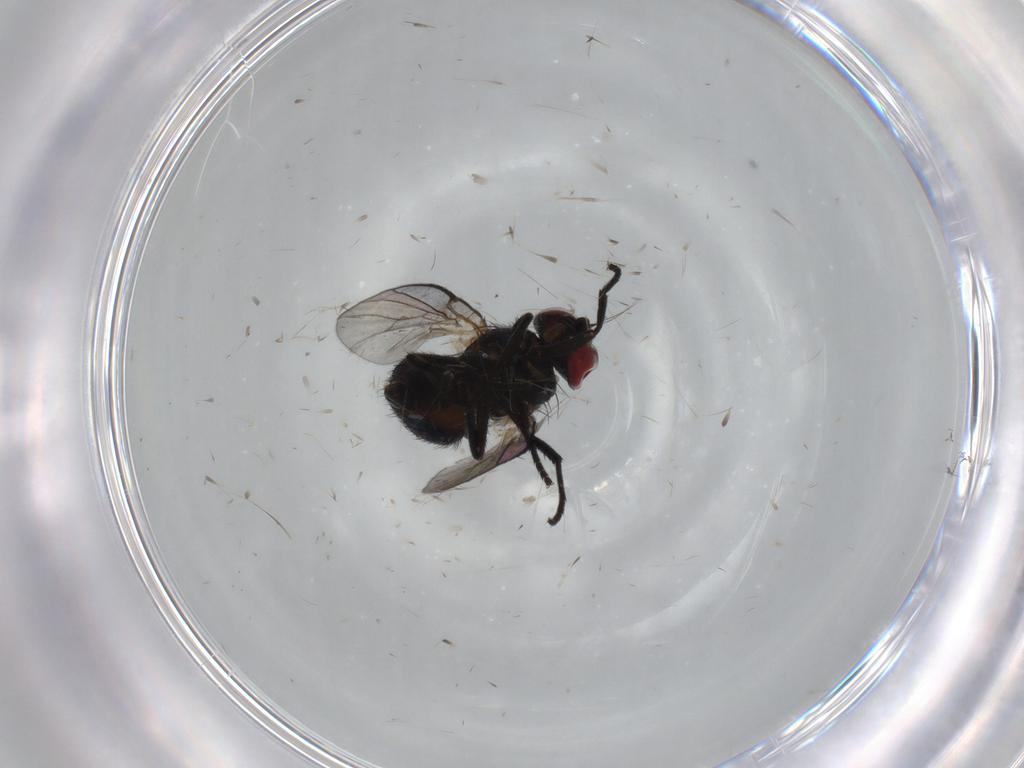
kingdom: Animalia
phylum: Arthropoda
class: Insecta
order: Diptera
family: Agromyzidae
